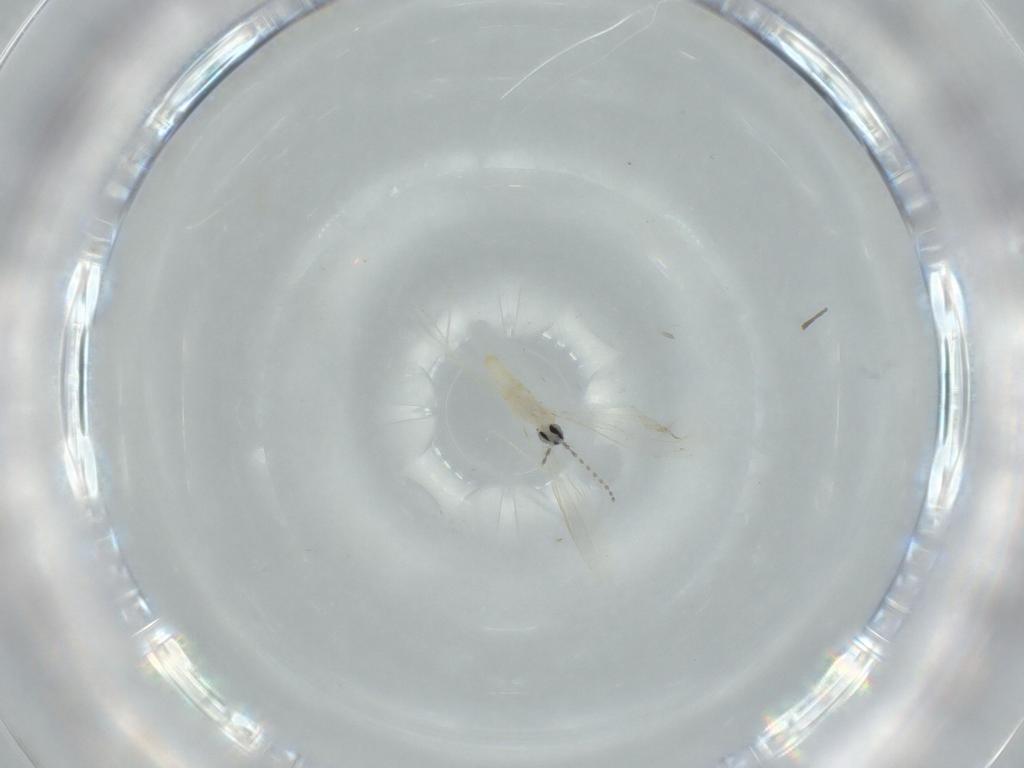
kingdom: Animalia
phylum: Arthropoda
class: Insecta
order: Diptera
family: Cecidomyiidae
